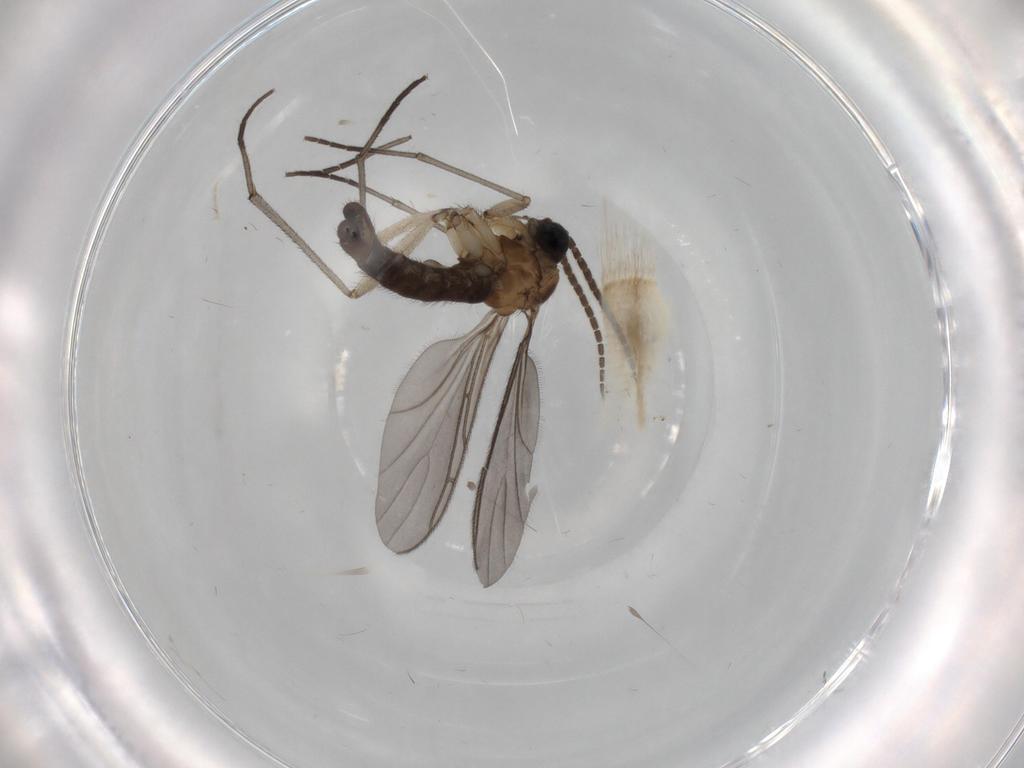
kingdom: Animalia
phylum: Arthropoda
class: Insecta
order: Diptera
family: Sciaridae
